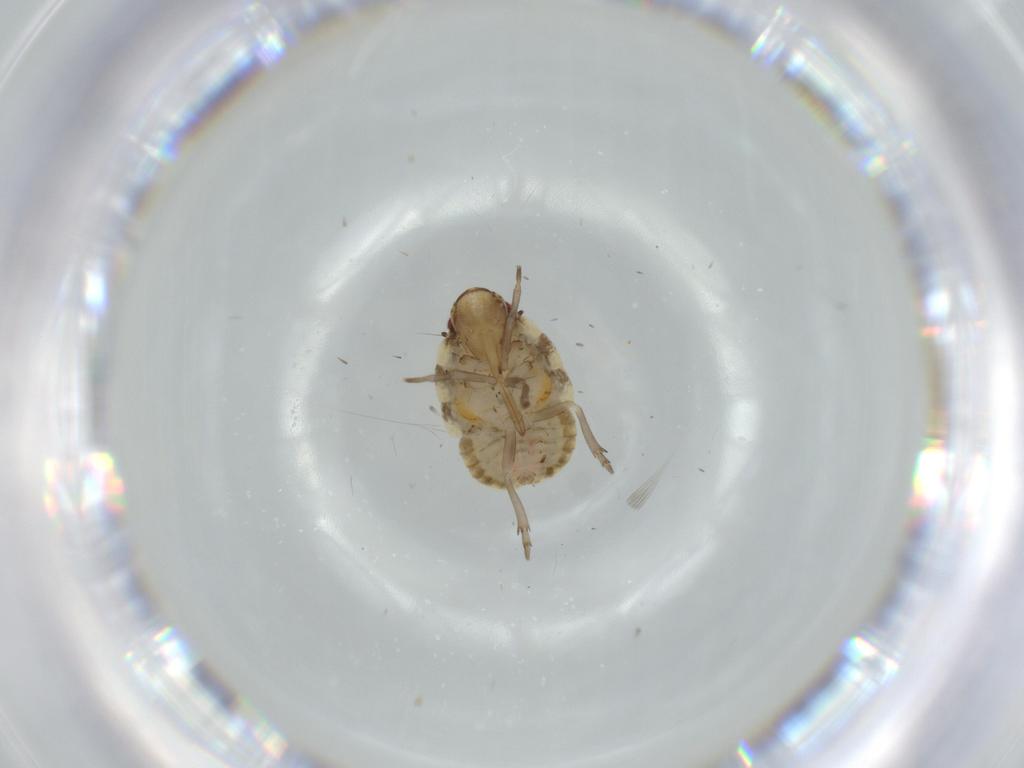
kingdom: Animalia
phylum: Arthropoda
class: Insecta
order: Hemiptera
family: Flatidae
